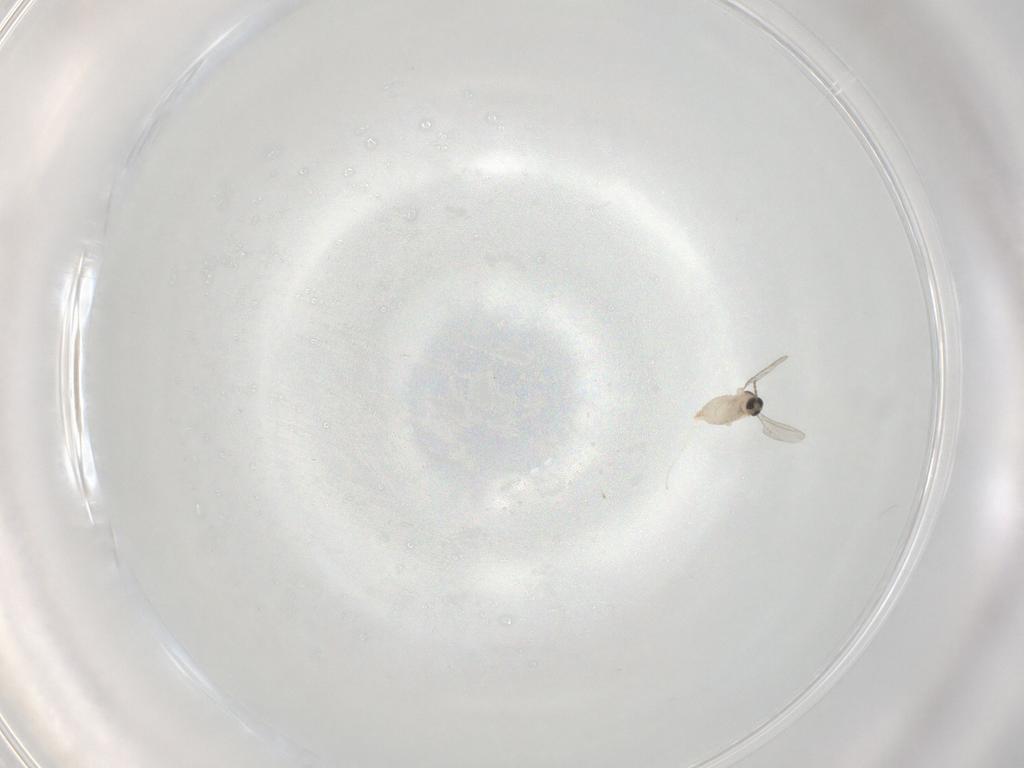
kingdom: Animalia
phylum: Arthropoda
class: Insecta
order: Diptera
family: Cecidomyiidae
